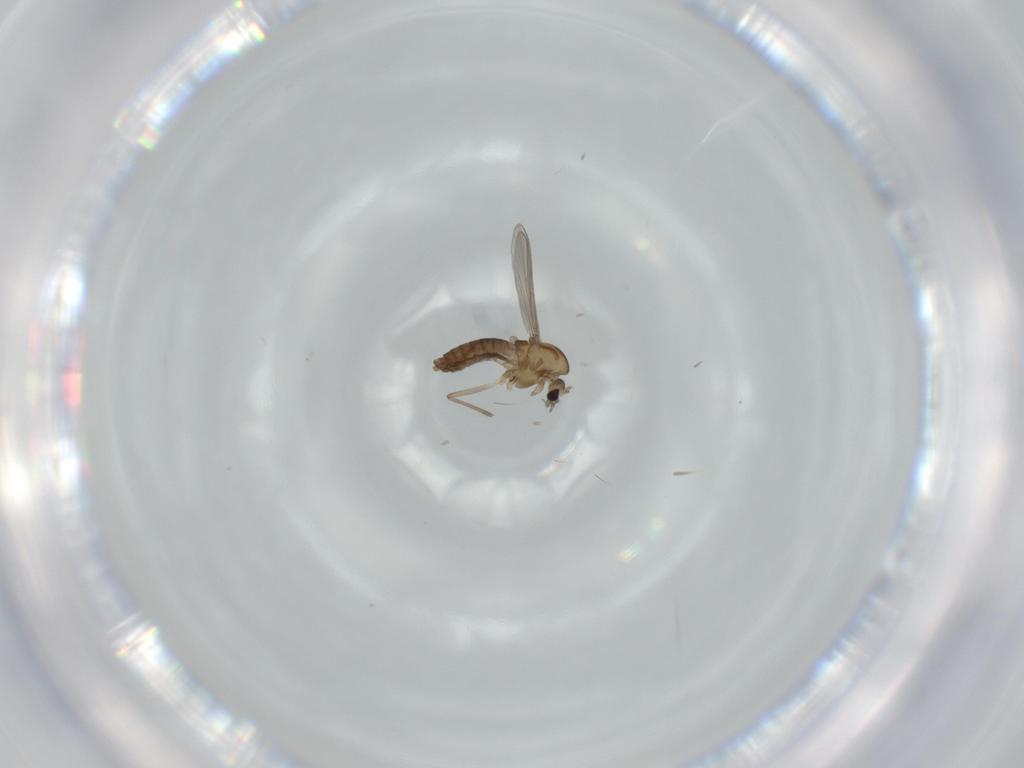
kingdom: Animalia
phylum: Arthropoda
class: Insecta
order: Diptera
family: Chironomidae
